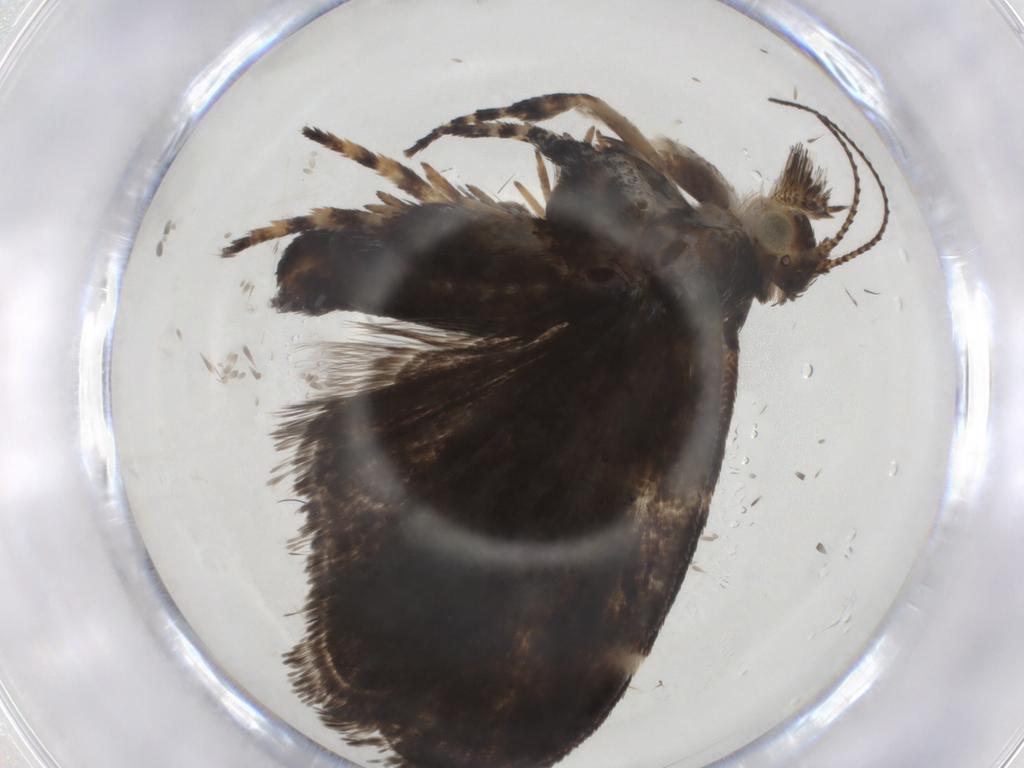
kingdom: Animalia
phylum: Arthropoda
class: Insecta
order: Lepidoptera
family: Choreutidae
